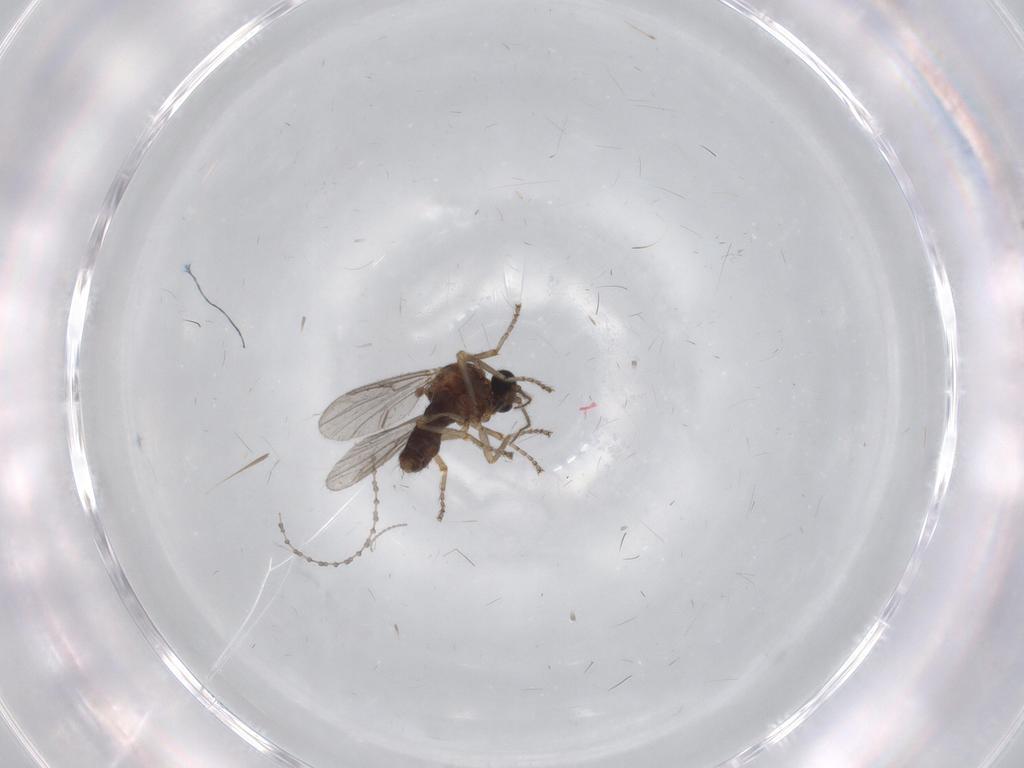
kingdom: Animalia
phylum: Arthropoda
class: Insecta
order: Diptera
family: Ceratopogonidae
